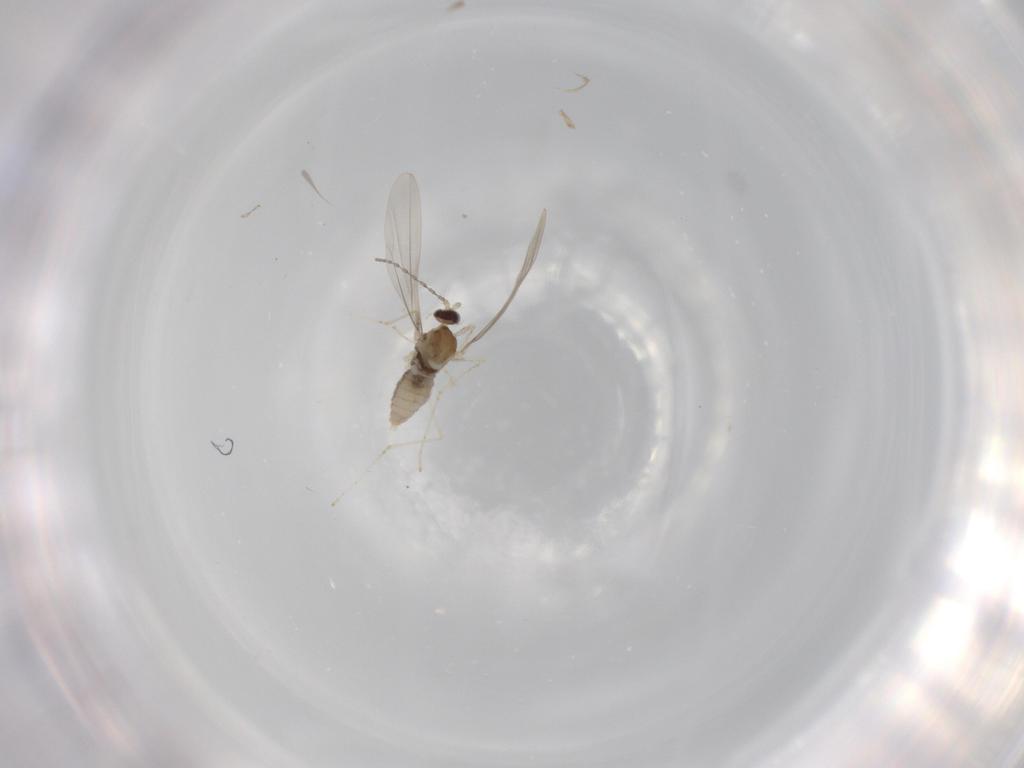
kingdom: Animalia
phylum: Arthropoda
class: Insecta
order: Diptera
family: Cecidomyiidae
